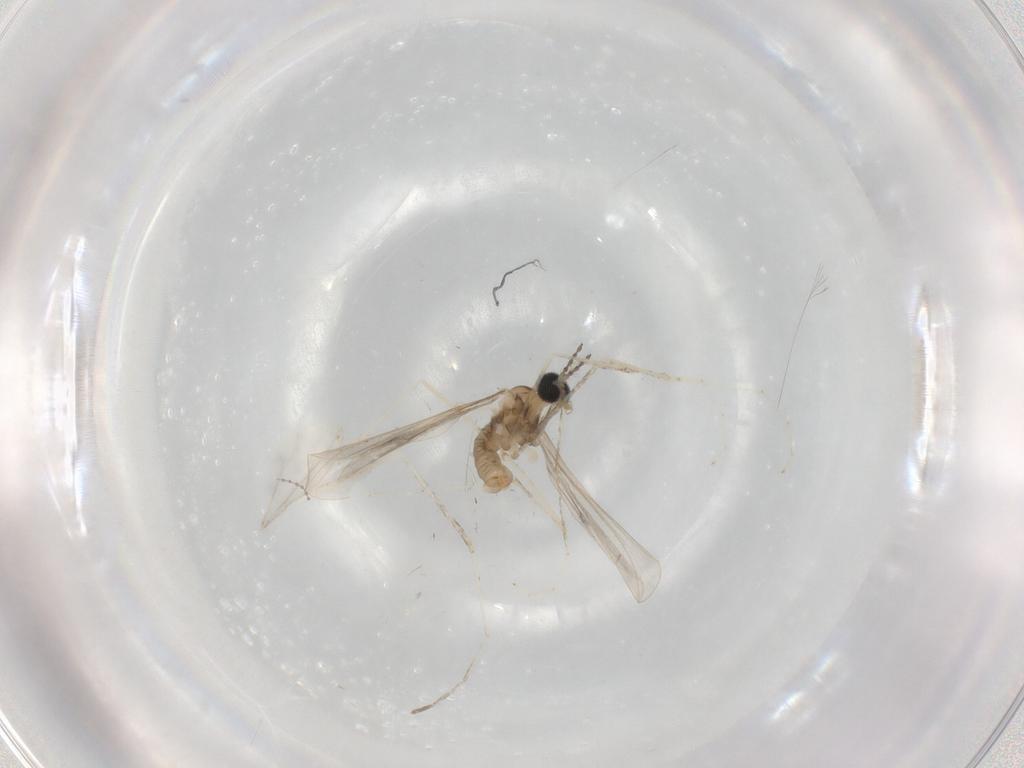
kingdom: Animalia
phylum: Arthropoda
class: Insecta
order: Diptera
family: Cecidomyiidae
